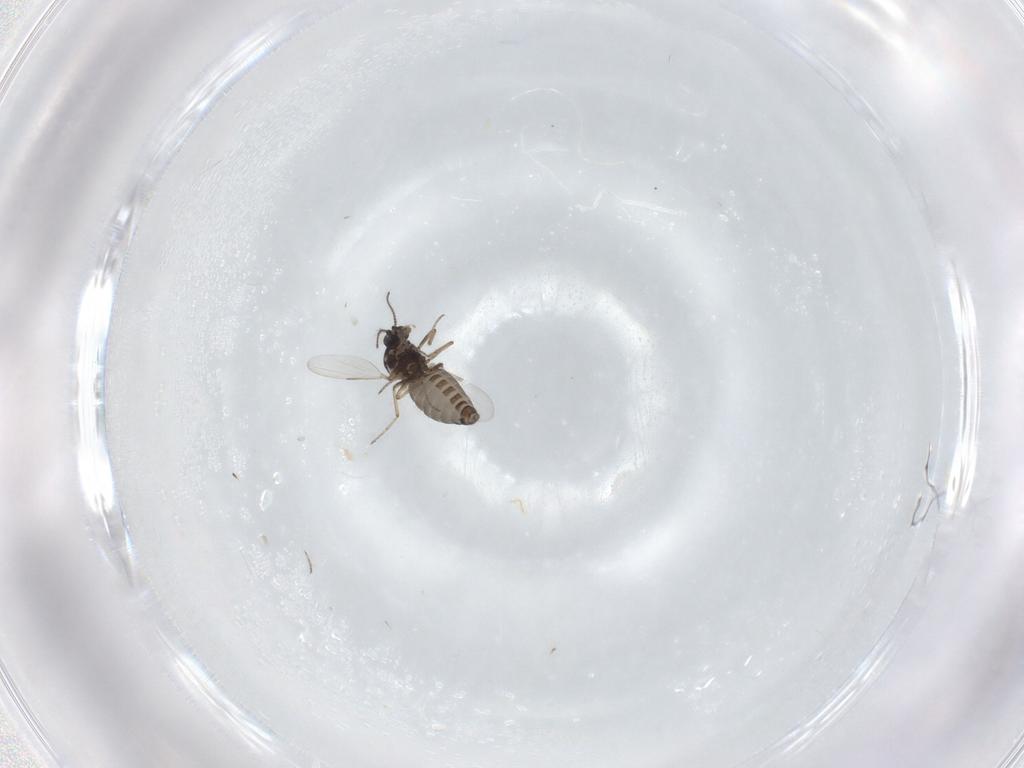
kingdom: Animalia
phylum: Arthropoda
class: Insecta
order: Diptera
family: Ceratopogonidae
